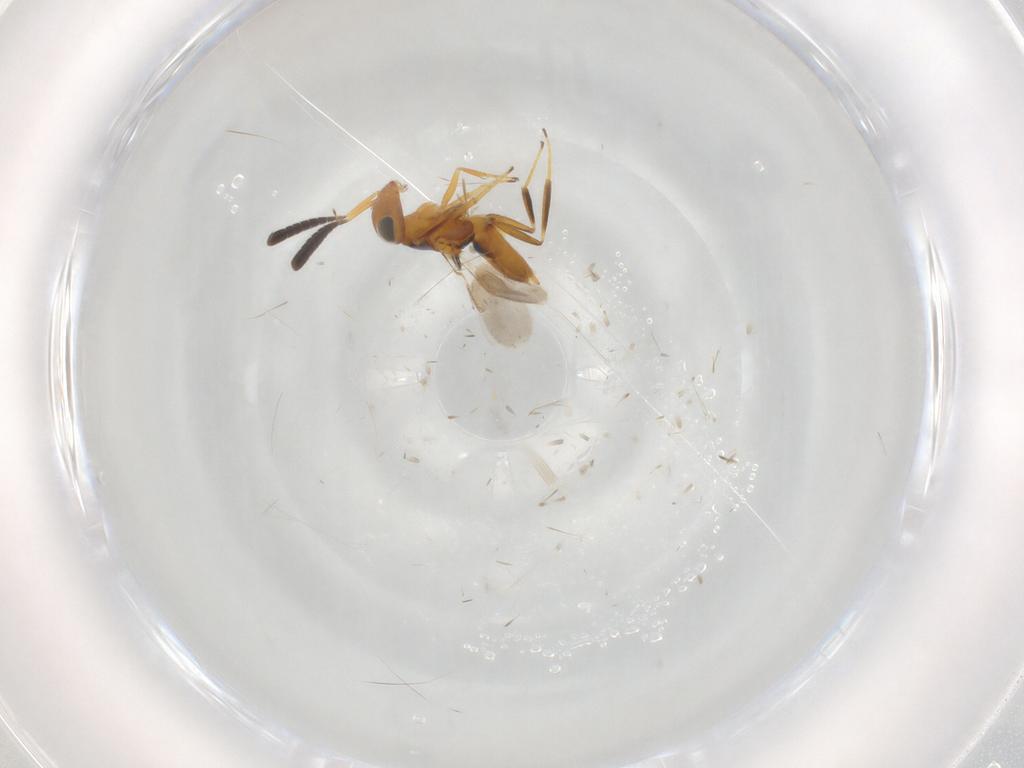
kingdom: Animalia
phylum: Arthropoda
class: Insecta
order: Hymenoptera
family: Encyrtidae
